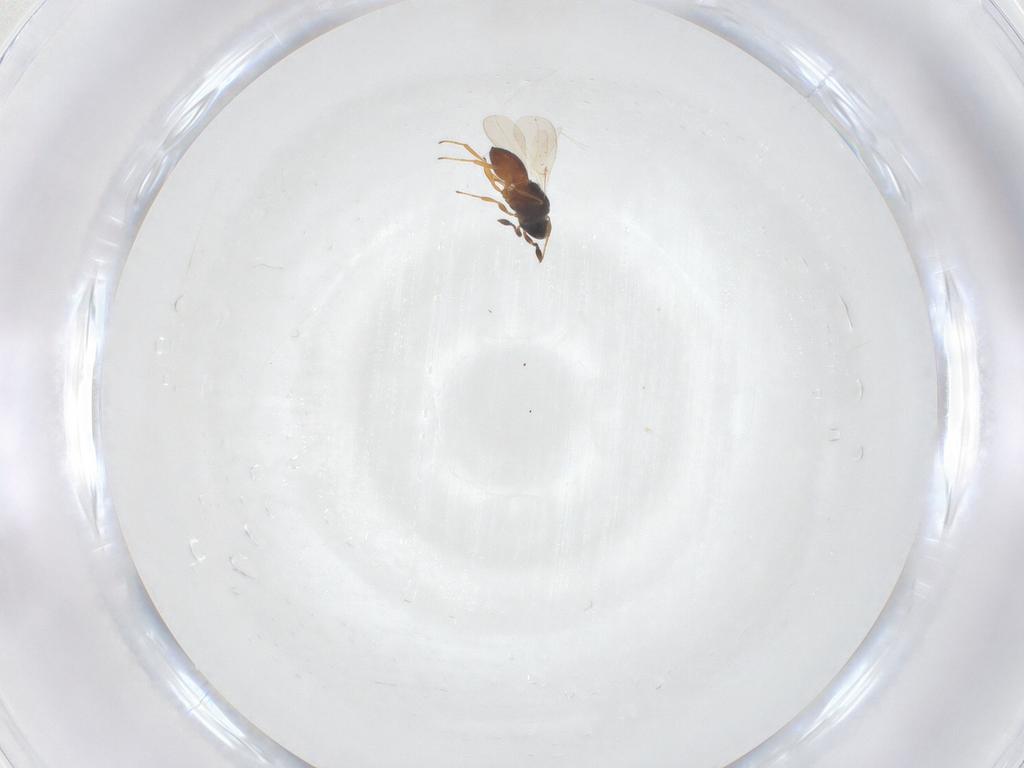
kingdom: Animalia
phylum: Arthropoda
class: Insecta
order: Hymenoptera
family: Platygastridae
